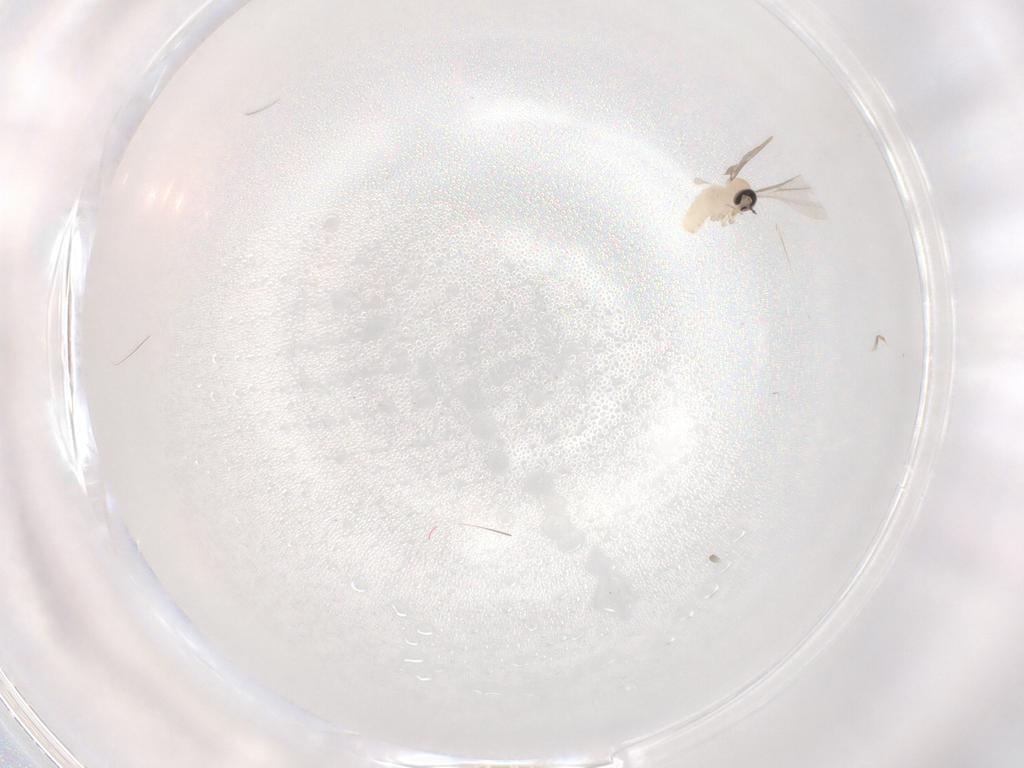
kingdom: Animalia
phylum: Arthropoda
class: Insecta
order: Diptera
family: Cecidomyiidae
